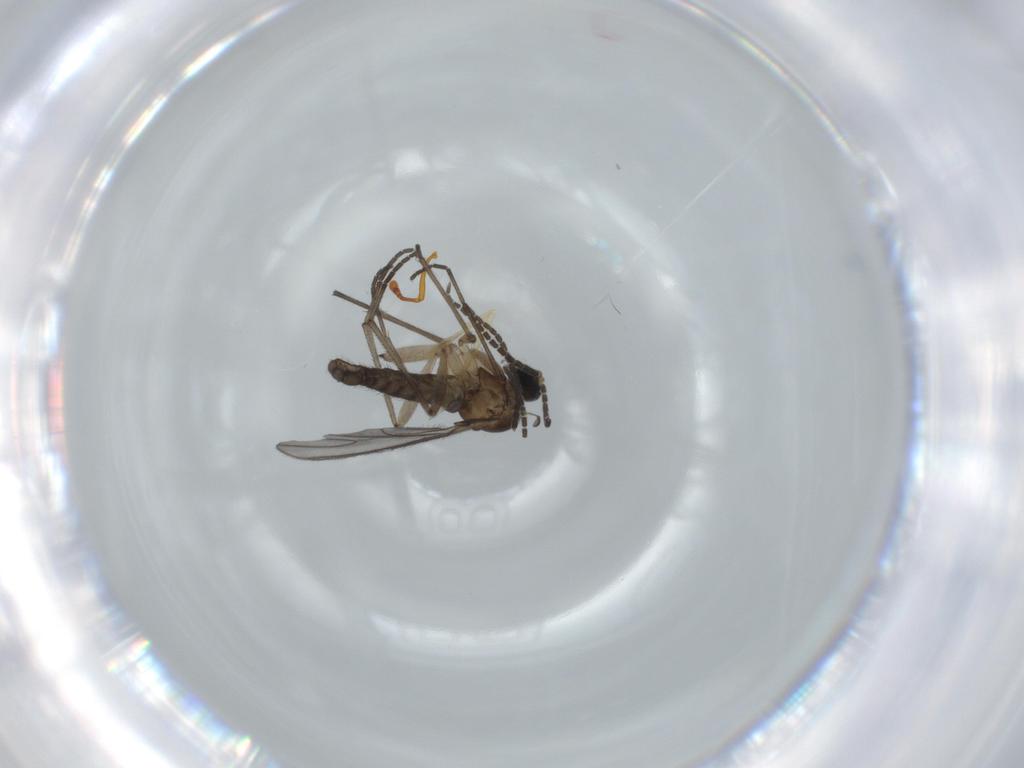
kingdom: Animalia
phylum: Arthropoda
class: Insecta
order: Diptera
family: Sciaridae
